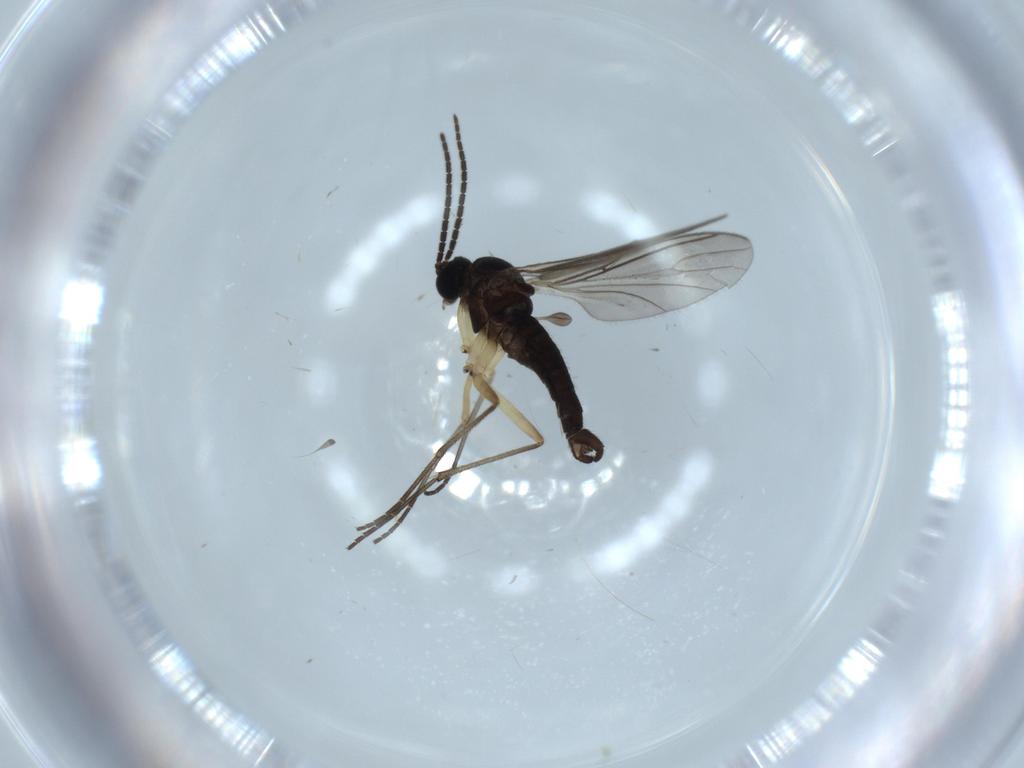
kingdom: Animalia
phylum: Arthropoda
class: Insecta
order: Diptera
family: Sciaridae
